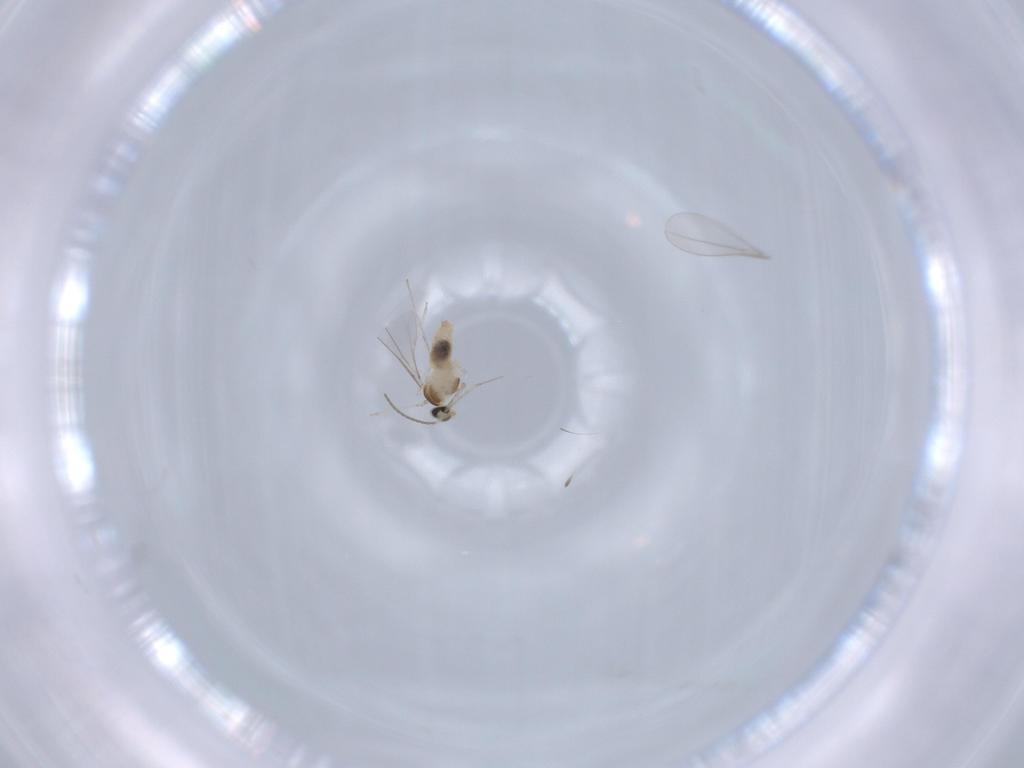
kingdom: Animalia
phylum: Arthropoda
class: Insecta
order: Diptera
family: Cecidomyiidae
